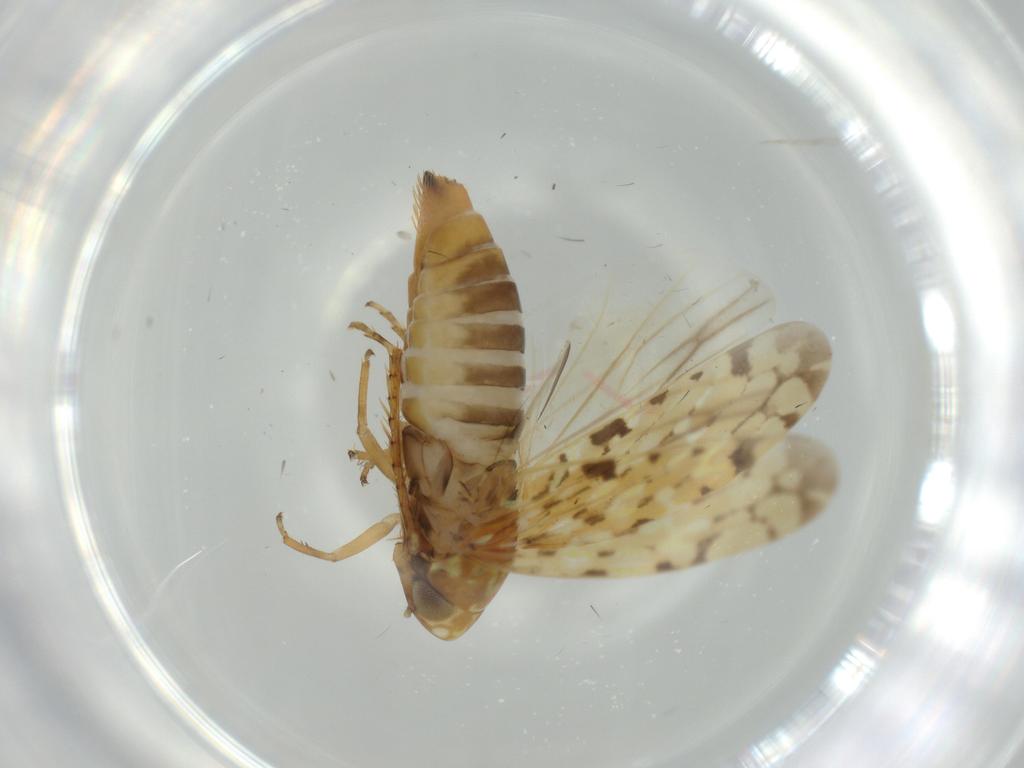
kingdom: Animalia
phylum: Arthropoda
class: Insecta
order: Hemiptera
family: Cicadellidae
